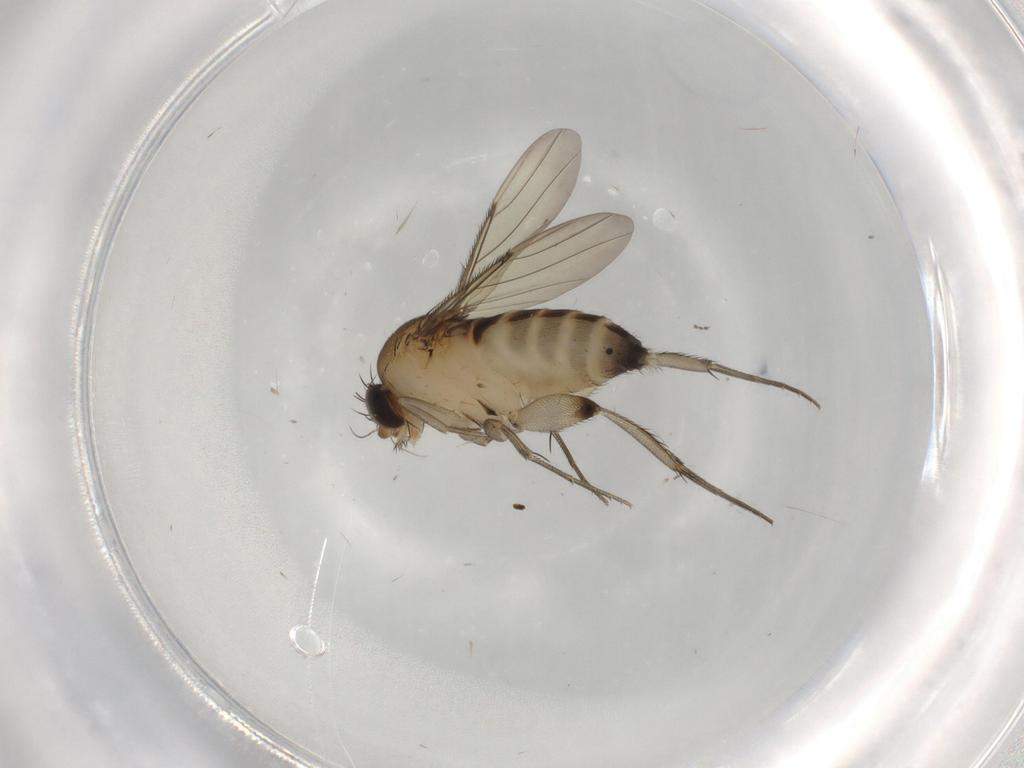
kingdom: Animalia
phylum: Arthropoda
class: Insecta
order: Diptera
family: Phoridae
